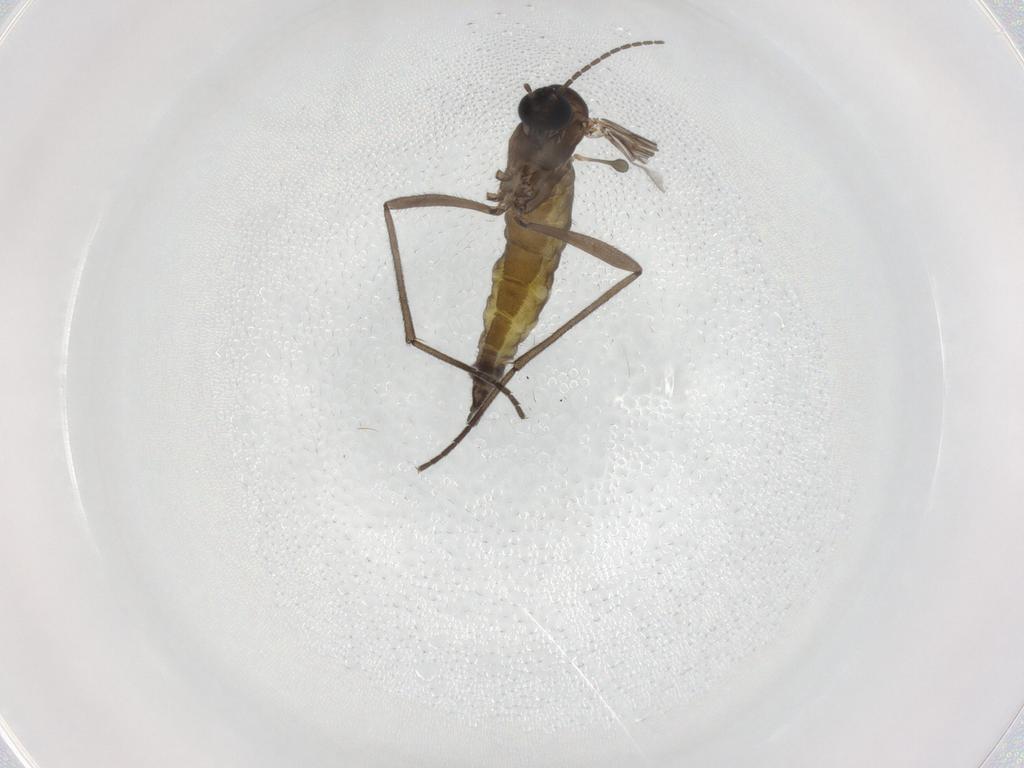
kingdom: Animalia
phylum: Arthropoda
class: Insecta
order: Diptera
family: Sciaridae
